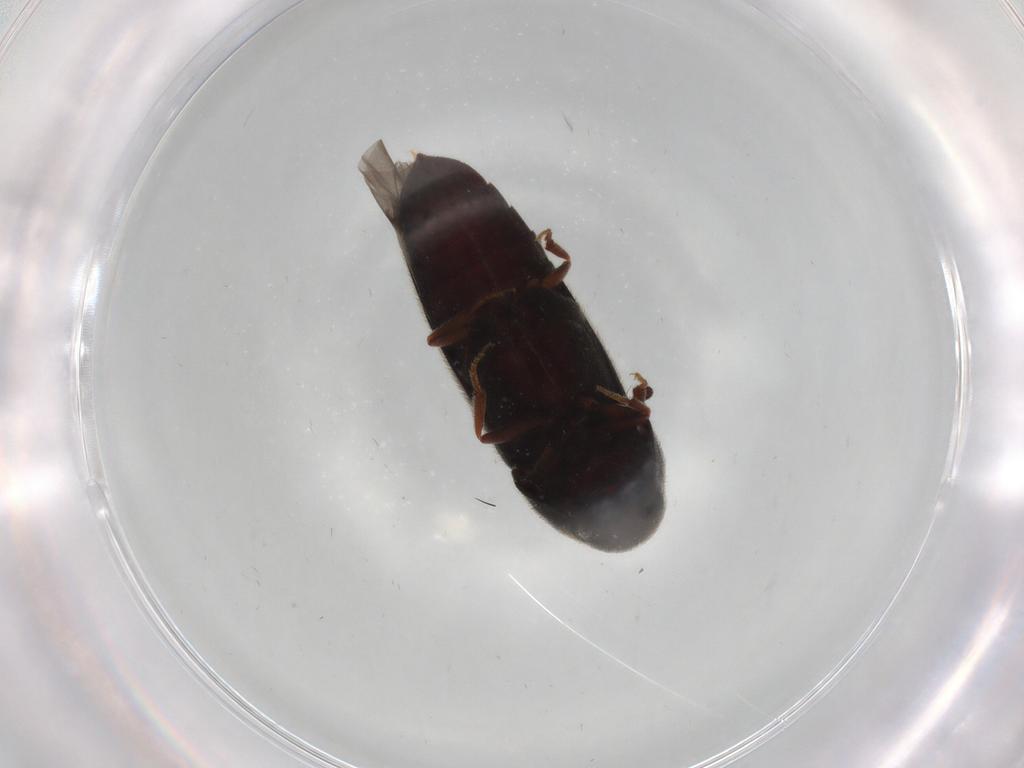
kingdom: Animalia
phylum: Arthropoda
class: Insecta
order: Coleoptera
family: Eucnemidae
